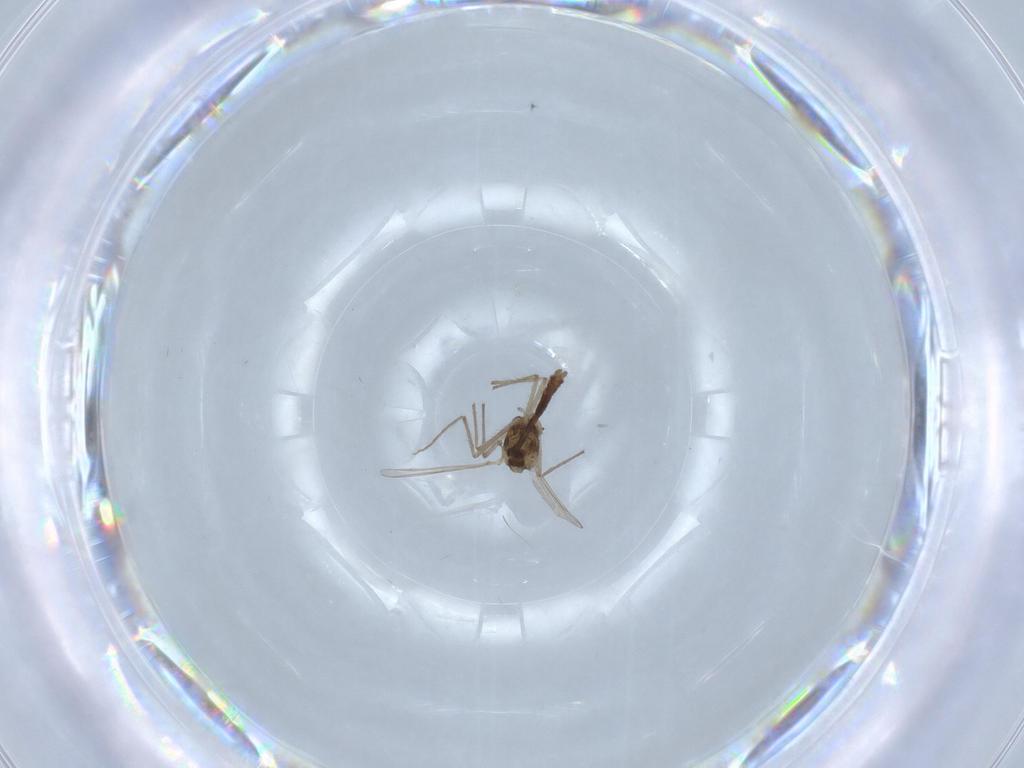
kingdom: Animalia
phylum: Arthropoda
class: Insecta
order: Diptera
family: Chironomidae
